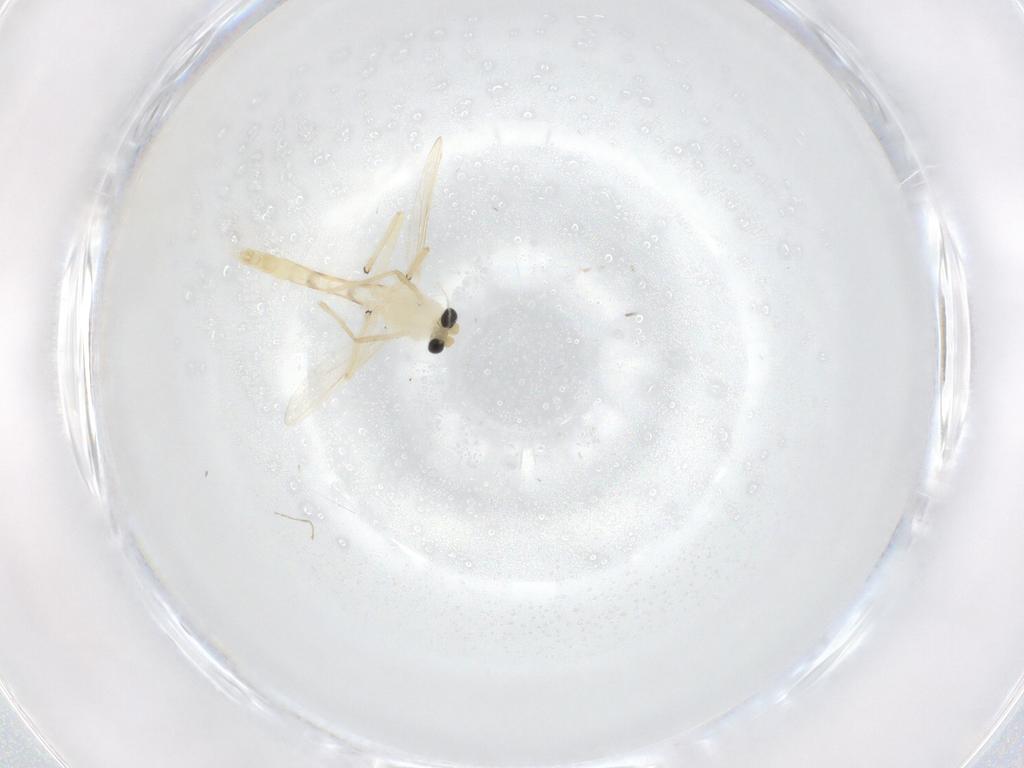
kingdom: Animalia
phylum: Arthropoda
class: Insecta
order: Diptera
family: Chironomidae
